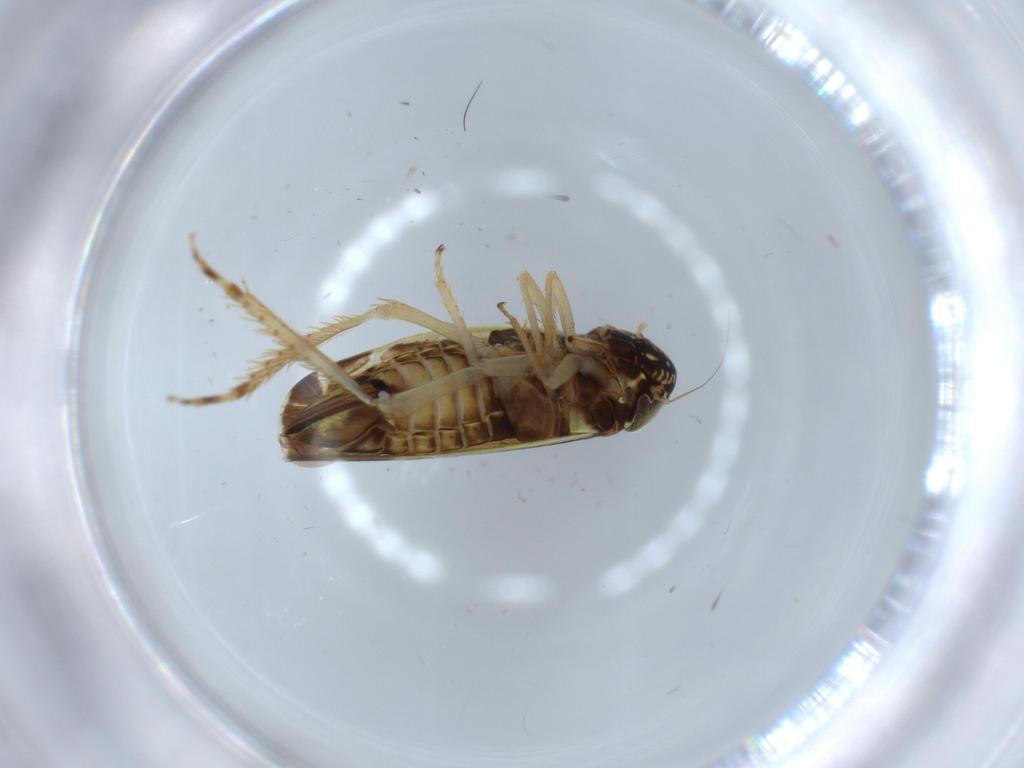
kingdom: Animalia
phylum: Arthropoda
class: Insecta
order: Hemiptera
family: Cicadellidae
